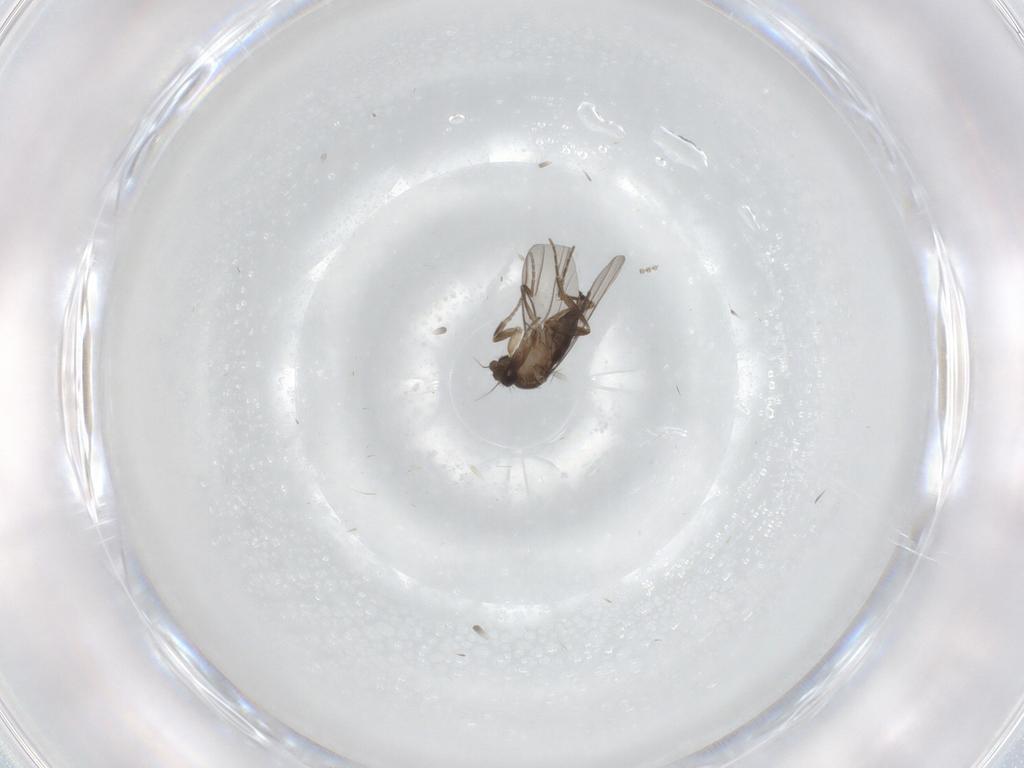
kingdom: Animalia
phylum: Arthropoda
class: Insecta
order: Diptera
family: Phoridae
